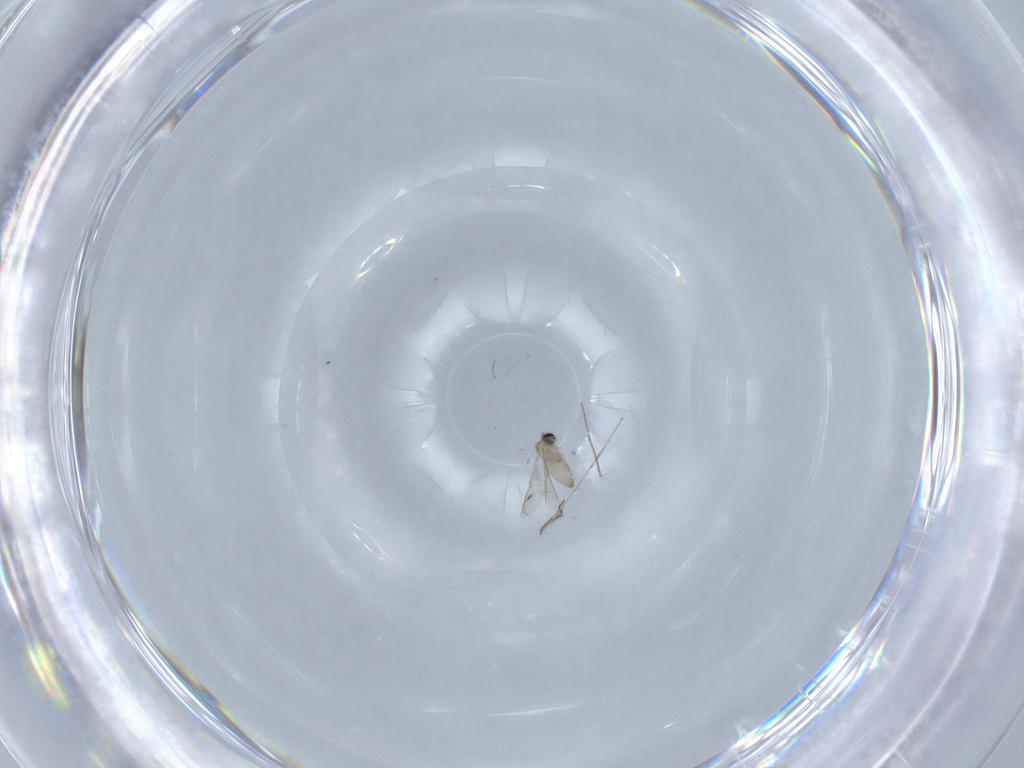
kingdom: Animalia
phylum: Arthropoda
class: Insecta
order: Diptera
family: Cecidomyiidae
